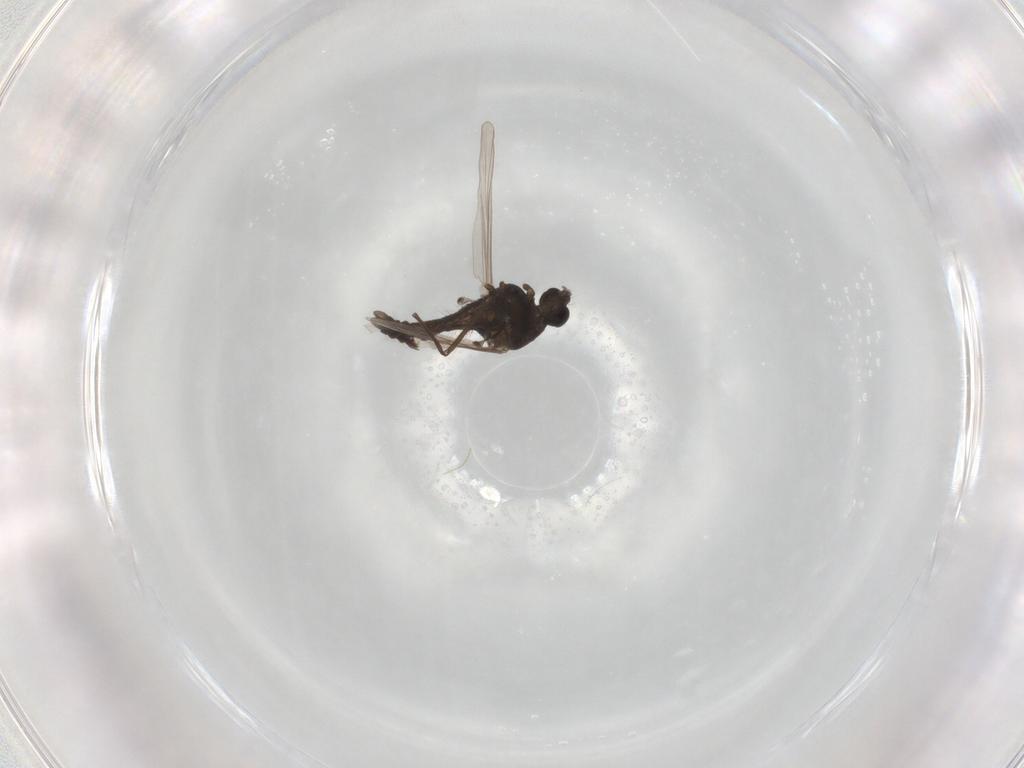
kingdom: Animalia
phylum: Arthropoda
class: Insecta
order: Diptera
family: Chironomidae
